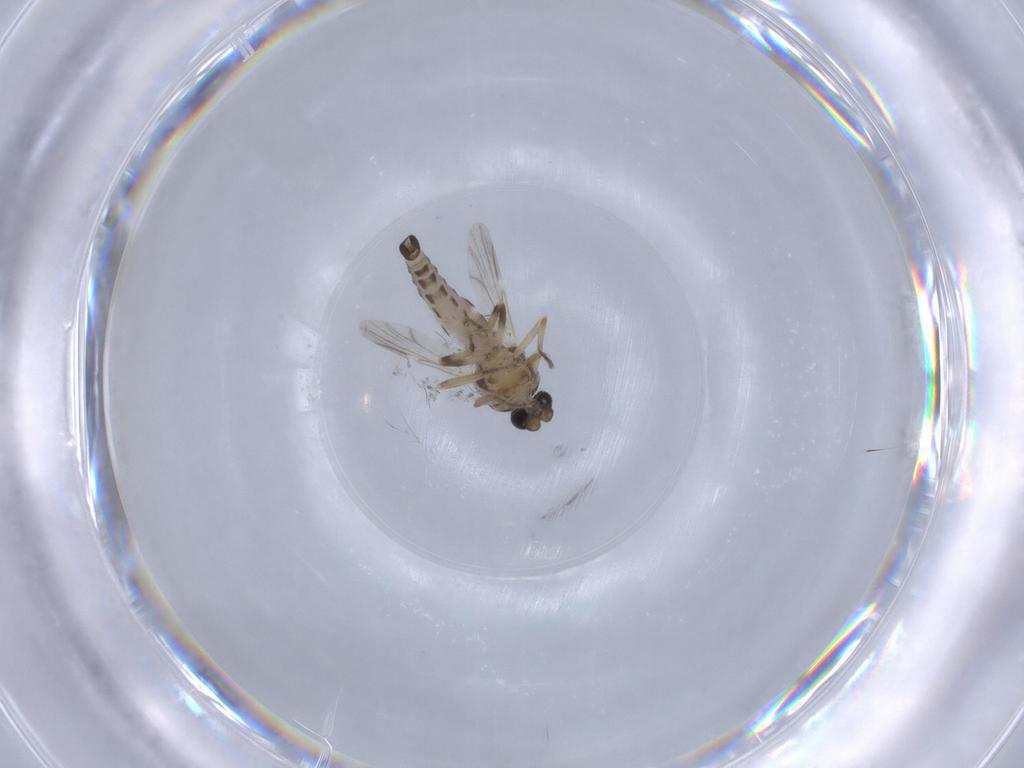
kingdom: Animalia
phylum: Arthropoda
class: Insecta
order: Diptera
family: Ceratopogonidae
